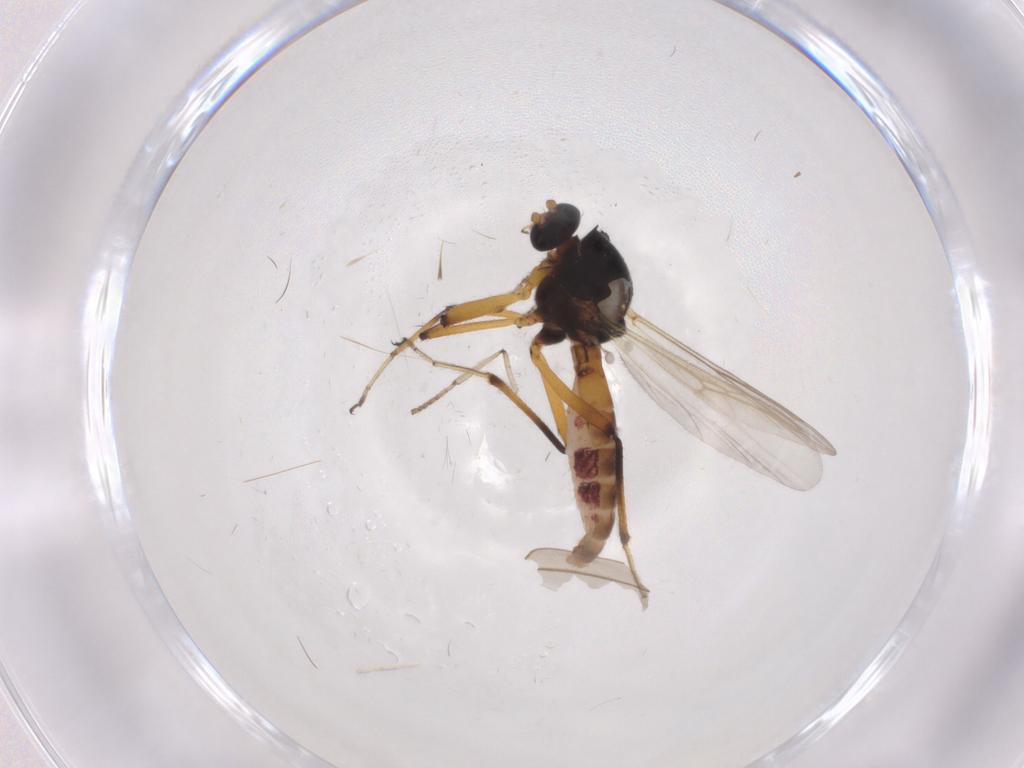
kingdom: Animalia
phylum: Arthropoda
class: Insecta
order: Diptera
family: Ceratopogonidae
